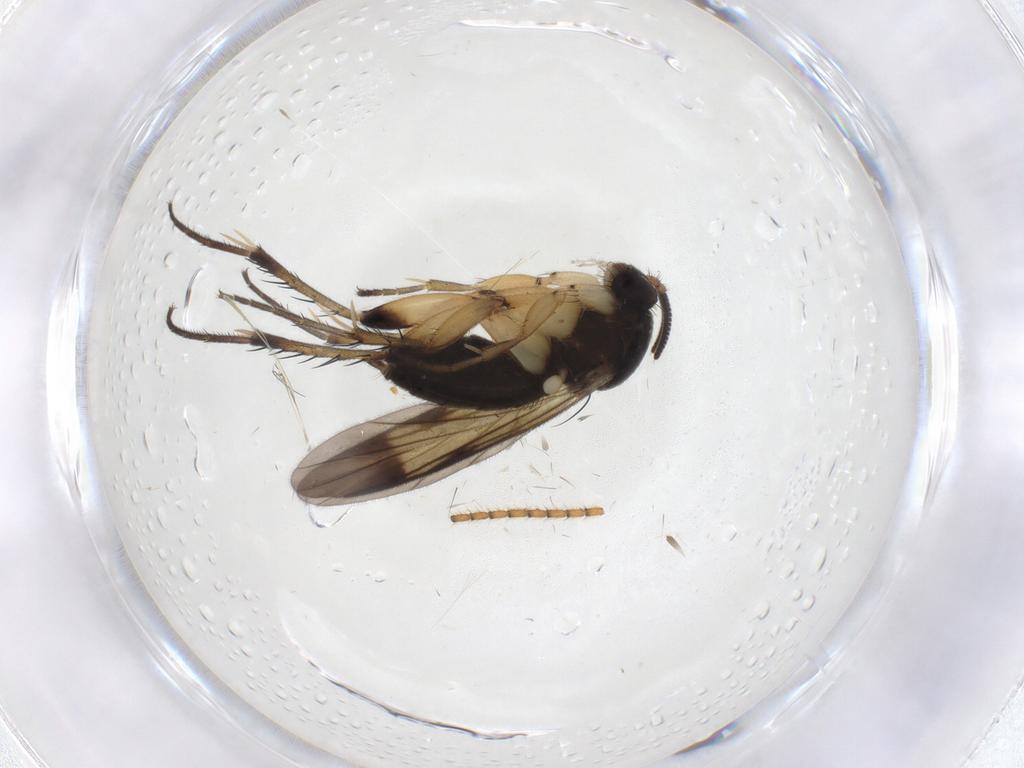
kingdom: Animalia
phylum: Arthropoda
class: Insecta
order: Diptera
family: Mycetophilidae
